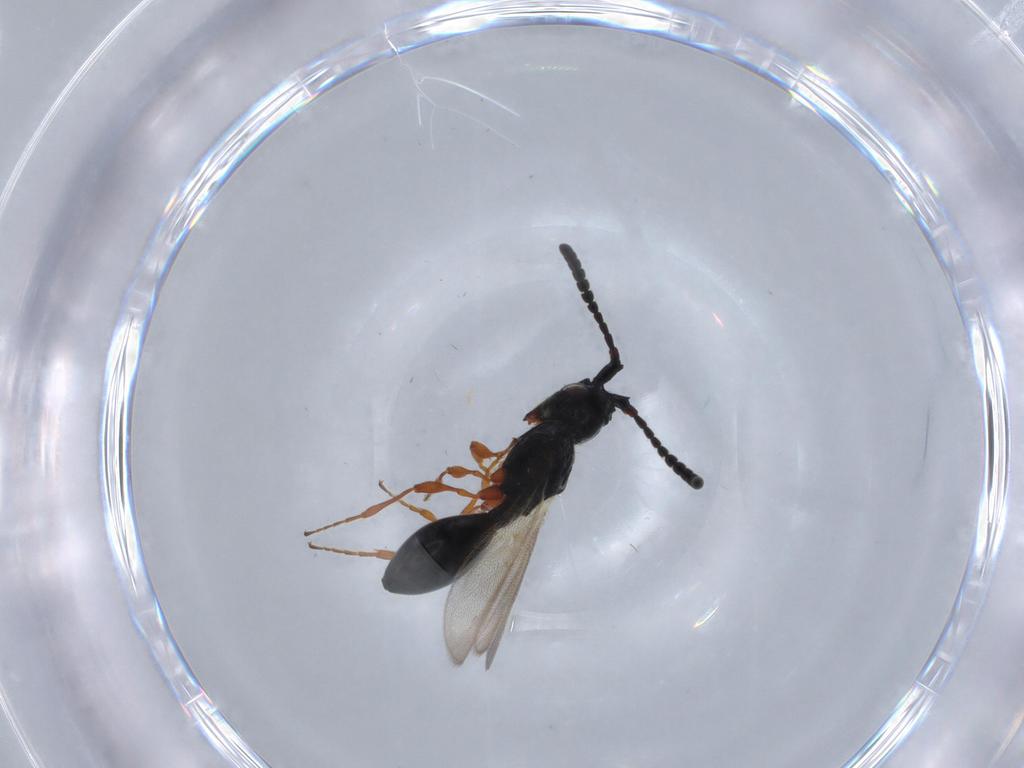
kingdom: Animalia
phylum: Arthropoda
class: Insecta
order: Hymenoptera
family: Diapriidae
